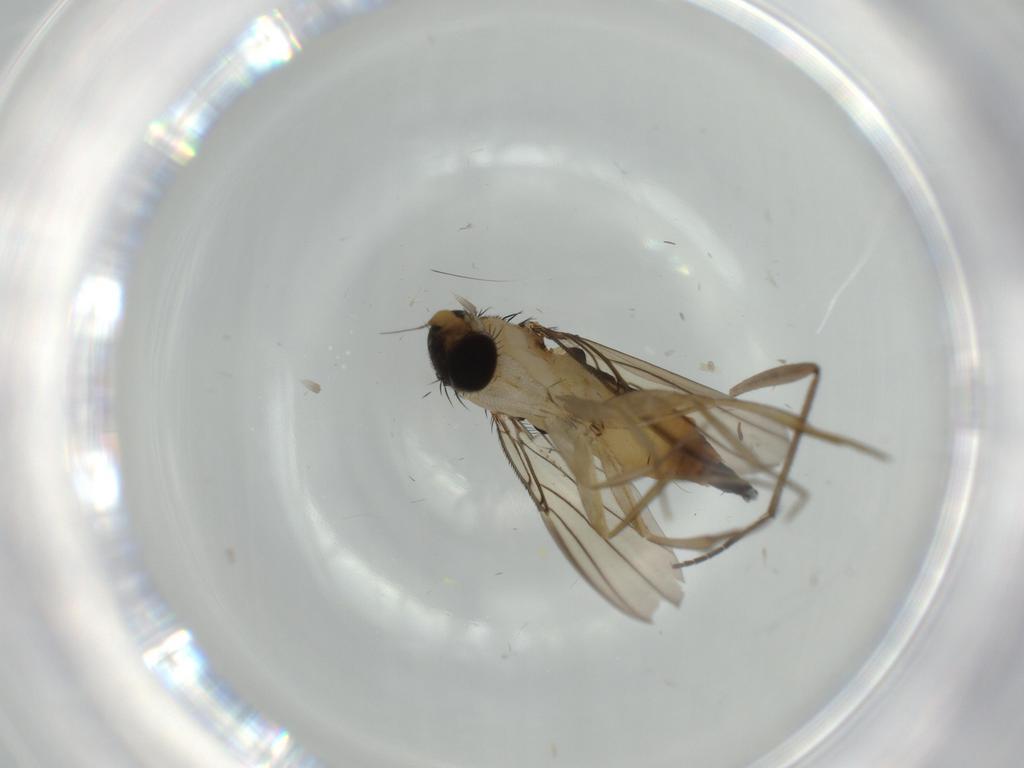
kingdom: Animalia
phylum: Arthropoda
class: Insecta
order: Diptera
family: Phoridae
